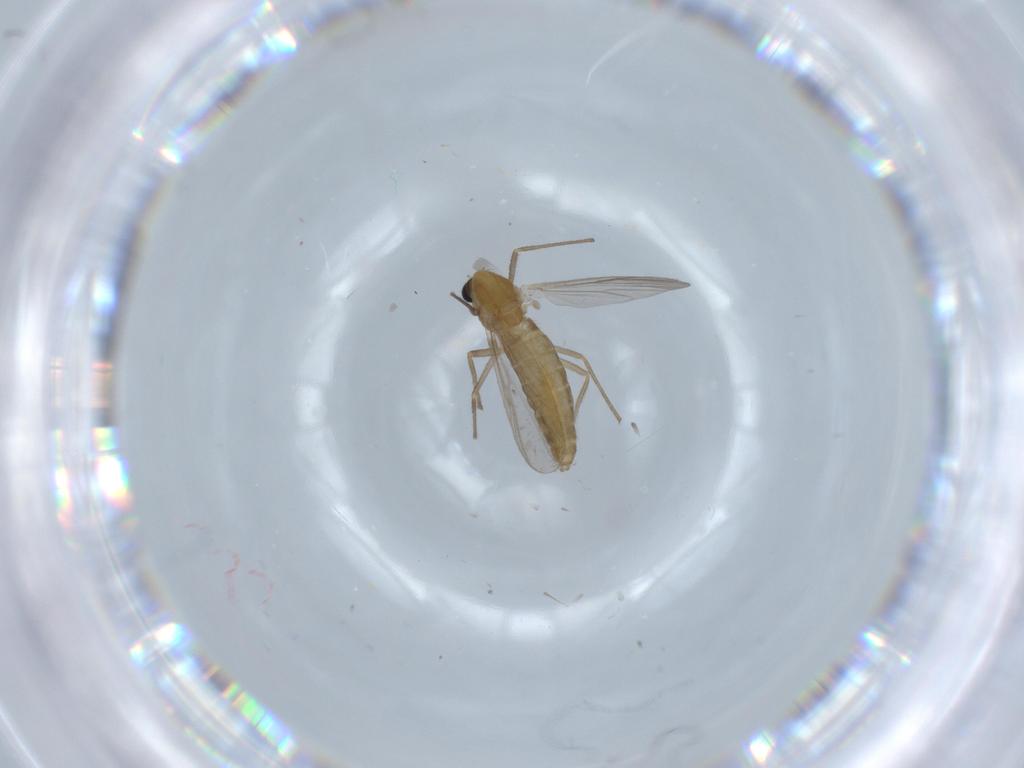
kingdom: Animalia
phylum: Arthropoda
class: Insecta
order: Diptera
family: Chironomidae
